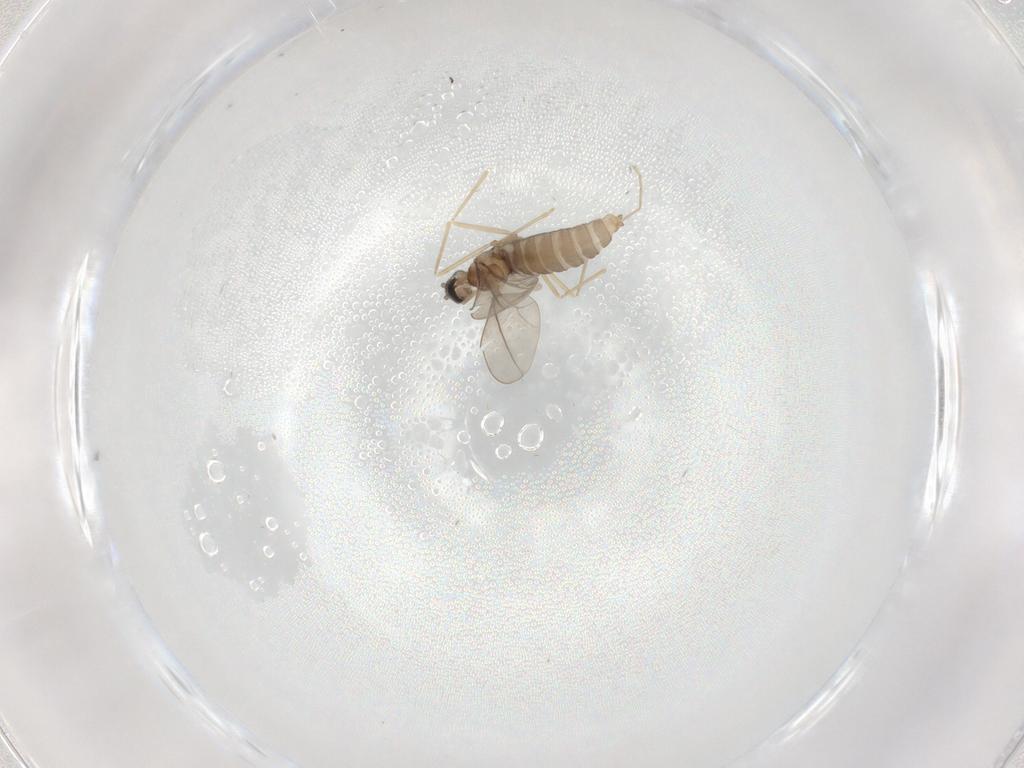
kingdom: Animalia
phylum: Arthropoda
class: Insecta
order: Diptera
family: Cecidomyiidae
